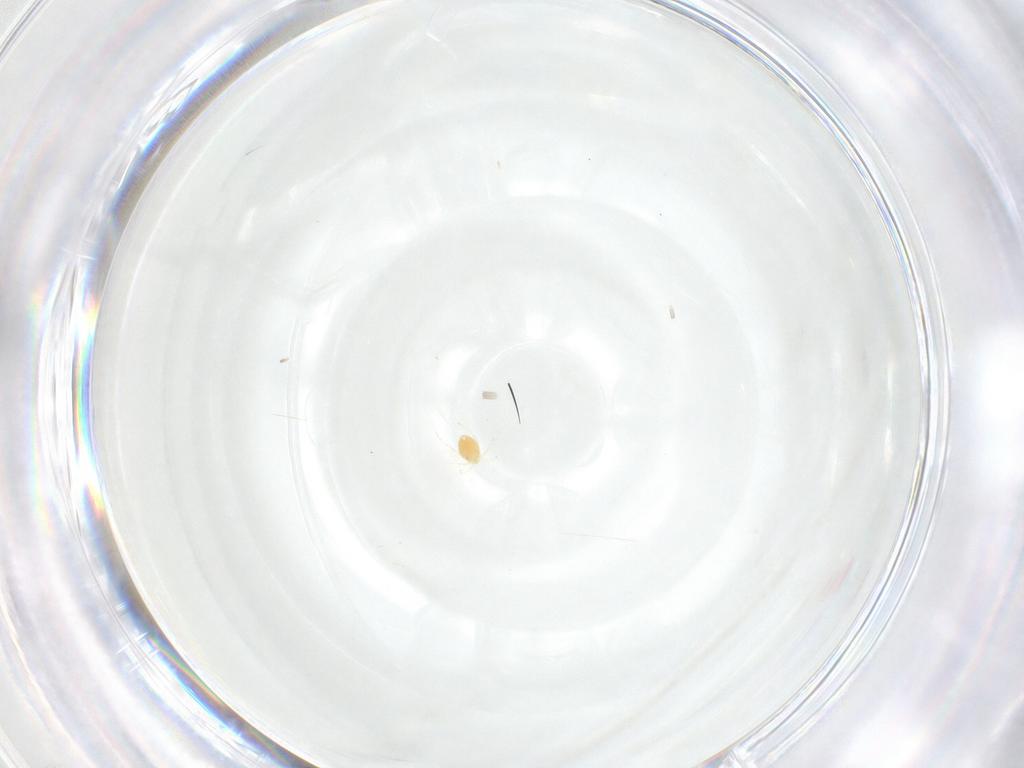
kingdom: Animalia
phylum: Arthropoda
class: Arachnida
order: Trombidiformes
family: Torrenticolidae
